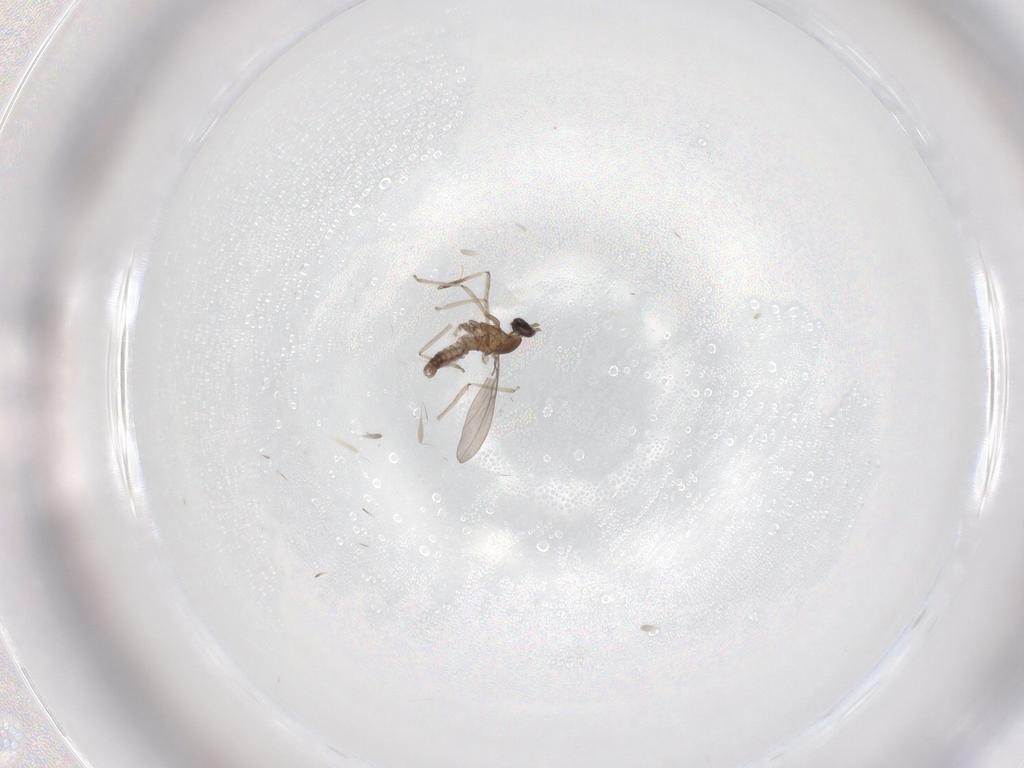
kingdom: Animalia
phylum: Arthropoda
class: Insecta
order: Diptera
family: Cecidomyiidae
